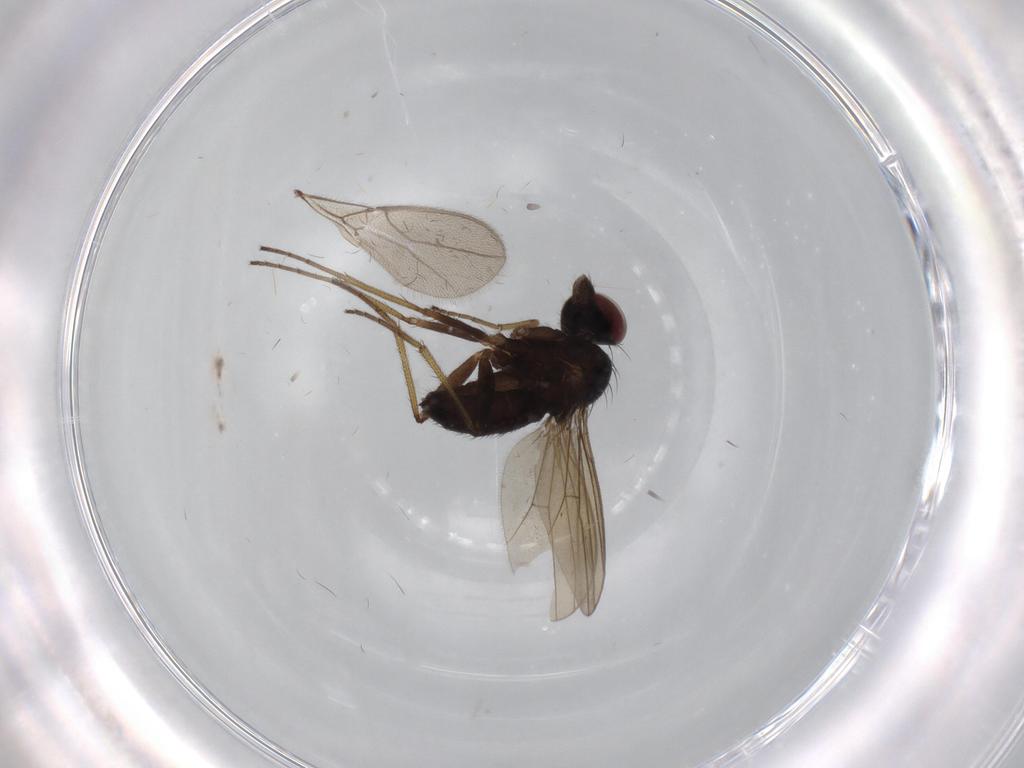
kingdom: Animalia
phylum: Arthropoda
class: Insecta
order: Diptera
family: Dolichopodidae
